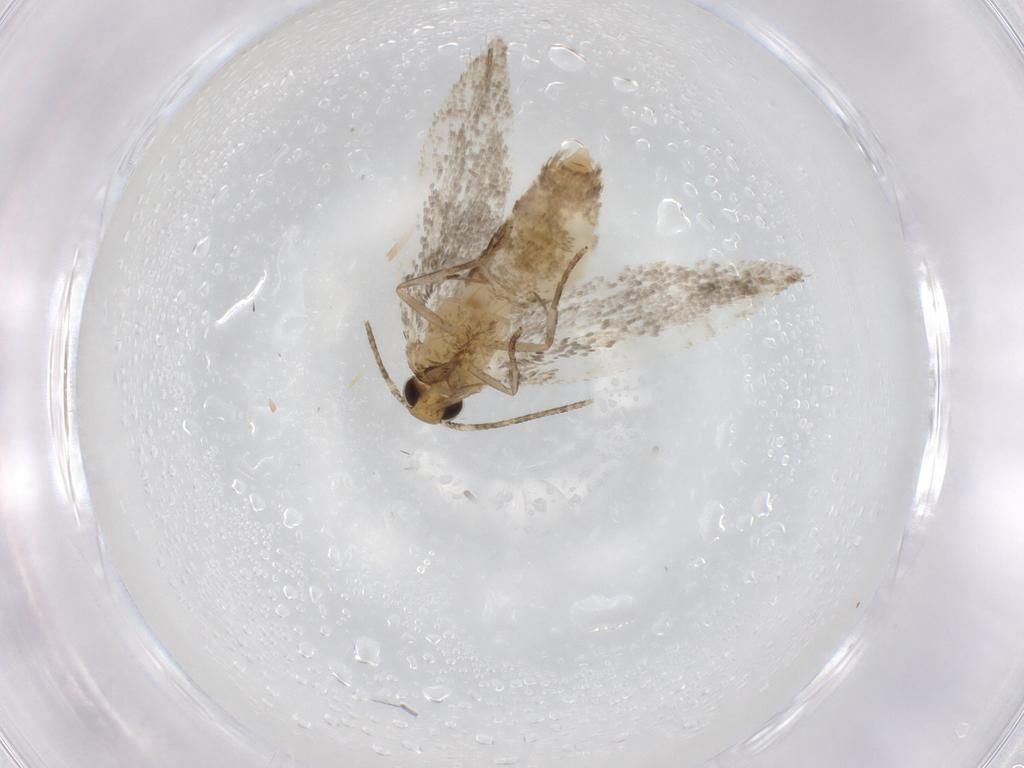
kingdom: Animalia
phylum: Arthropoda
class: Insecta
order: Lepidoptera
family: Gelechiidae
